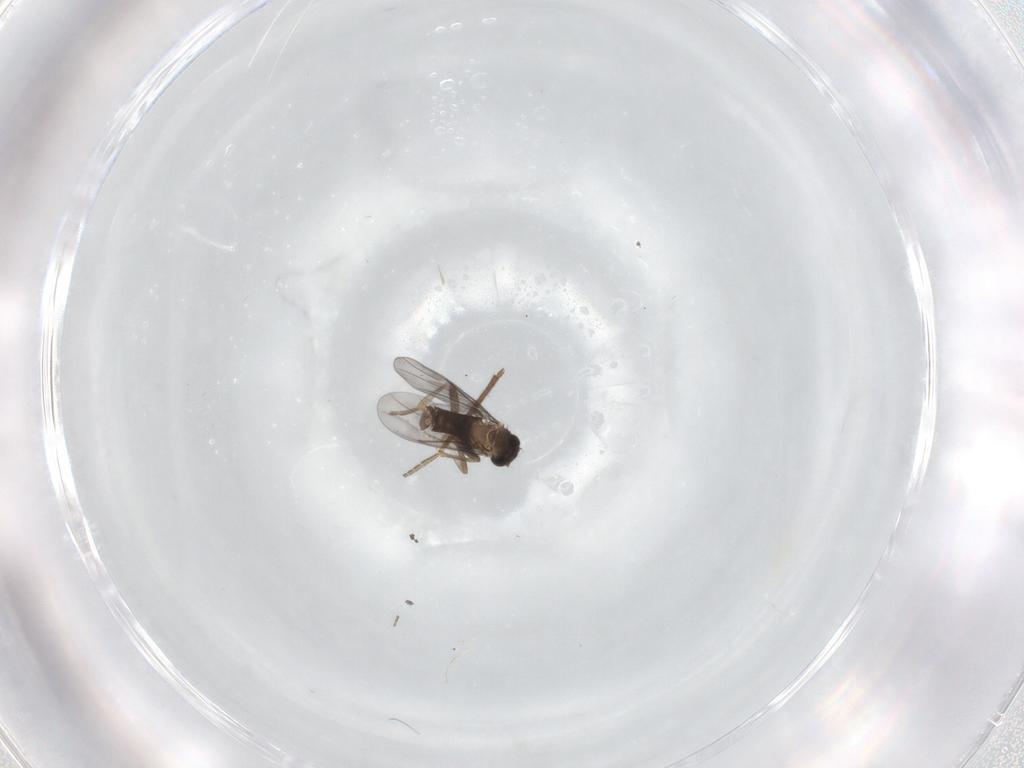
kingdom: Animalia
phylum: Arthropoda
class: Insecta
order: Diptera
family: Chironomidae
